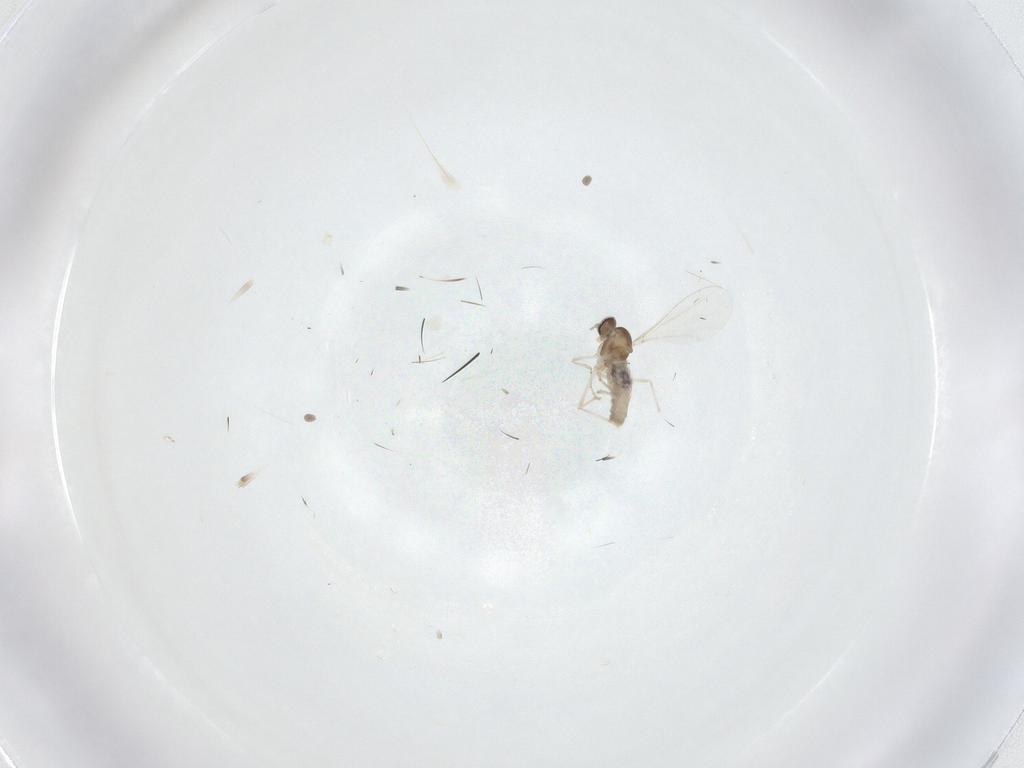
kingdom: Animalia
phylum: Arthropoda
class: Insecta
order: Diptera
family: Cecidomyiidae
